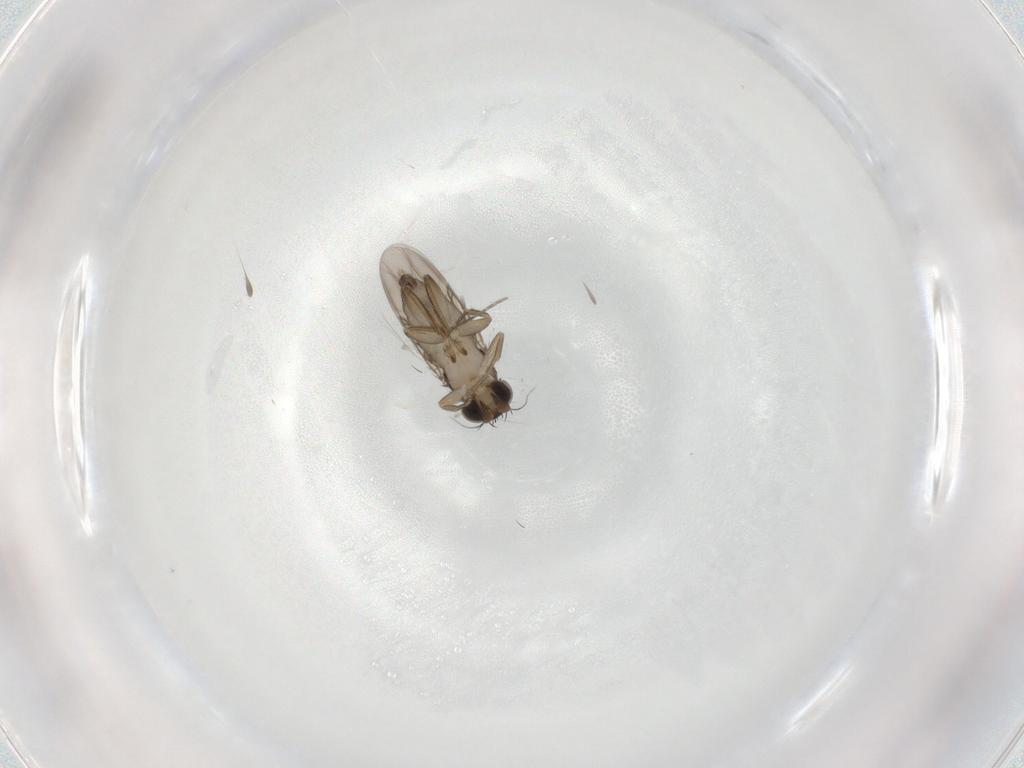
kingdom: Animalia
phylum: Arthropoda
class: Insecta
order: Diptera
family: Phoridae
